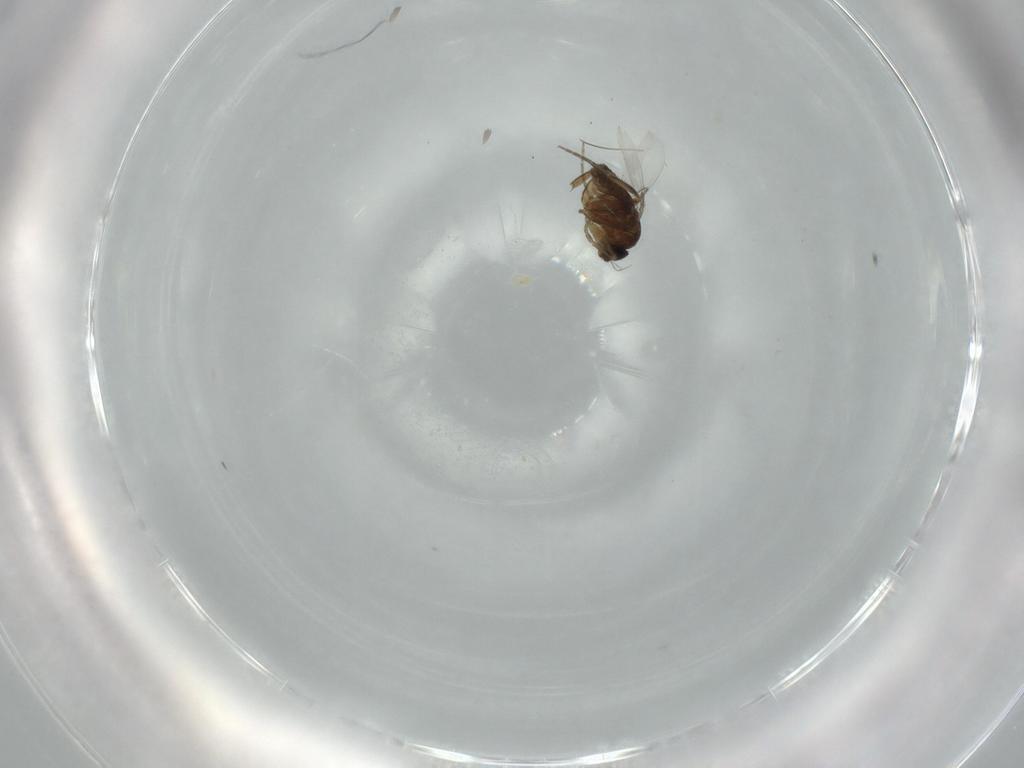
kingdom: Animalia
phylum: Arthropoda
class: Insecta
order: Diptera
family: Phoridae
